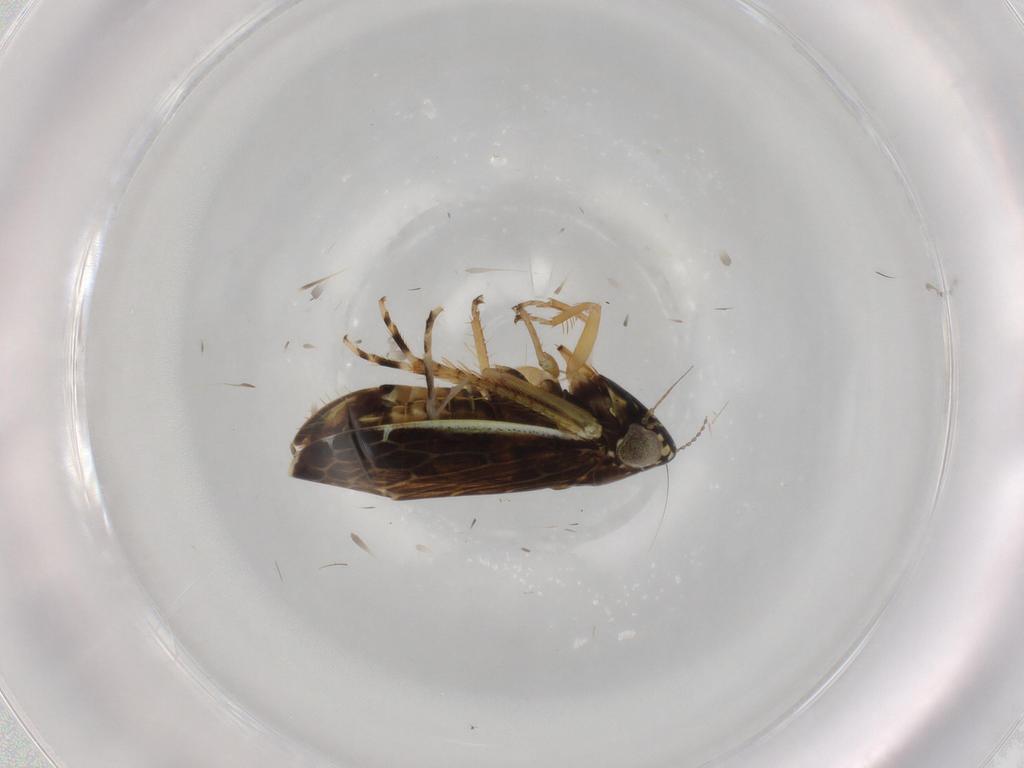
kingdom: Animalia
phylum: Arthropoda
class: Insecta
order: Hemiptera
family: Cicadellidae
